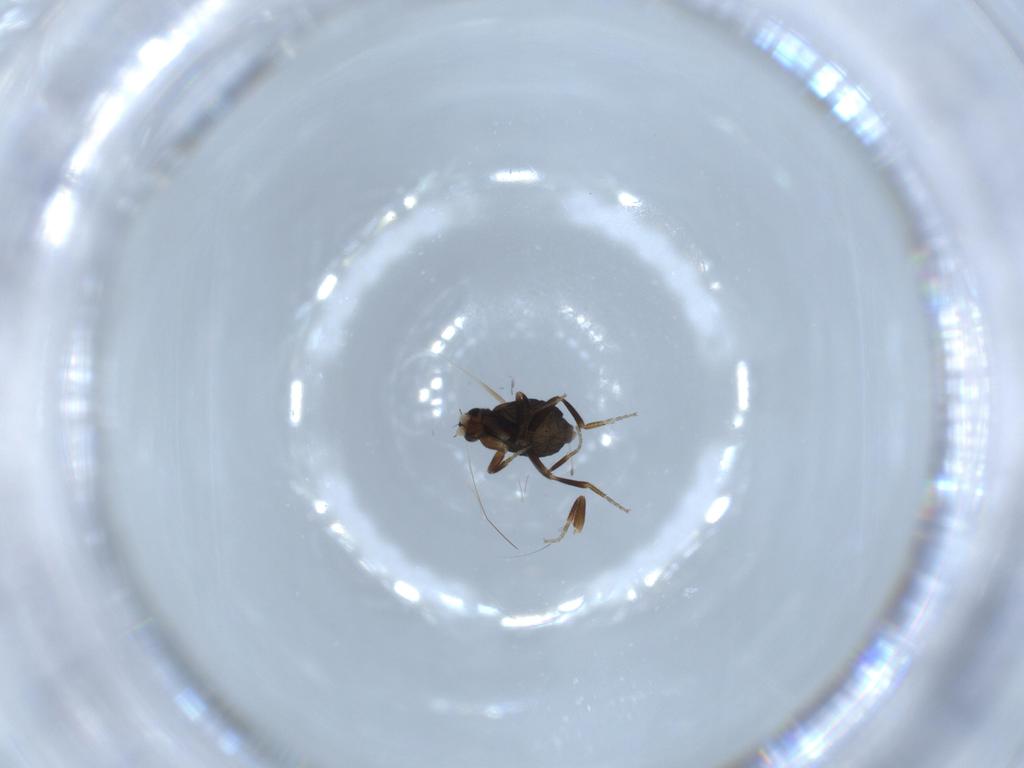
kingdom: Animalia
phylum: Arthropoda
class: Insecta
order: Diptera
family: Phoridae
